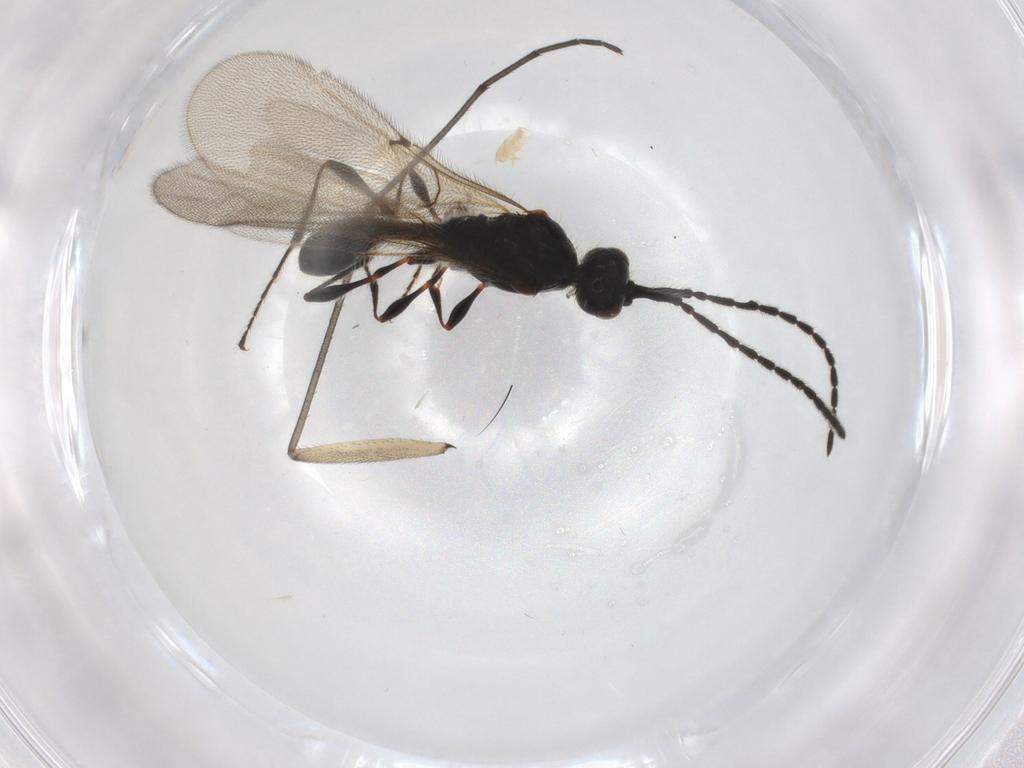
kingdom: Animalia
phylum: Arthropoda
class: Insecta
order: Hymenoptera
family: Diapriidae
